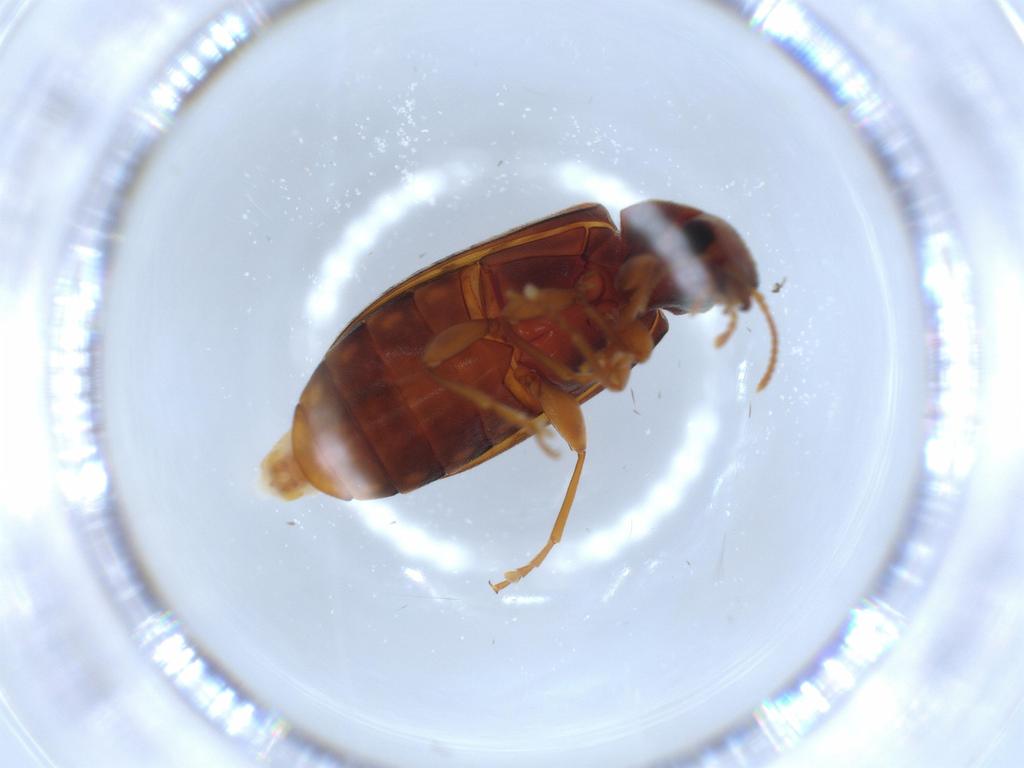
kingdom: Animalia
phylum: Arthropoda
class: Insecta
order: Coleoptera
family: Mycteridae
